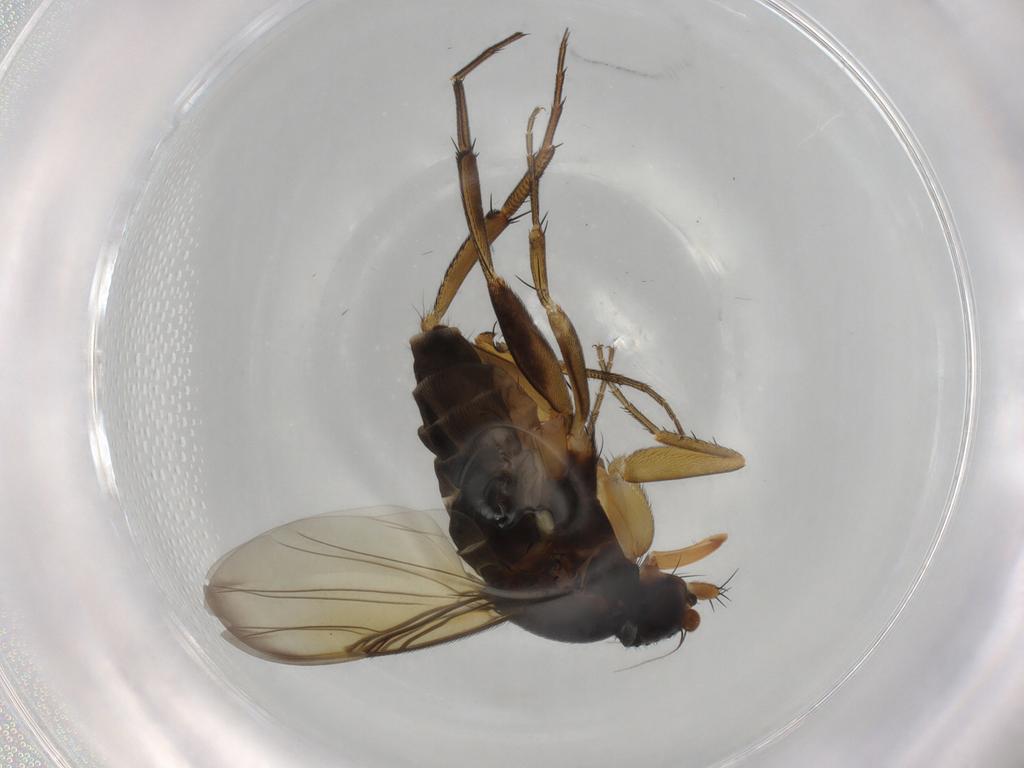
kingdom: Animalia
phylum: Arthropoda
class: Insecta
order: Diptera
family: Phoridae
